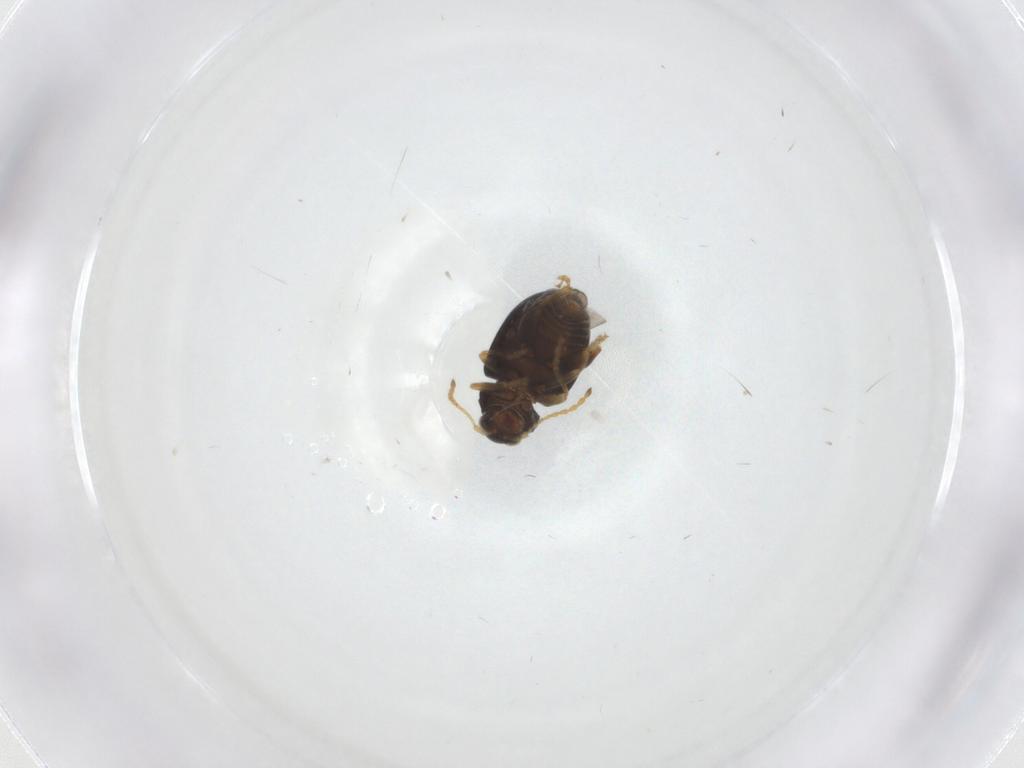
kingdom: Animalia
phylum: Arthropoda
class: Insecta
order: Coleoptera
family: Chrysomelidae
